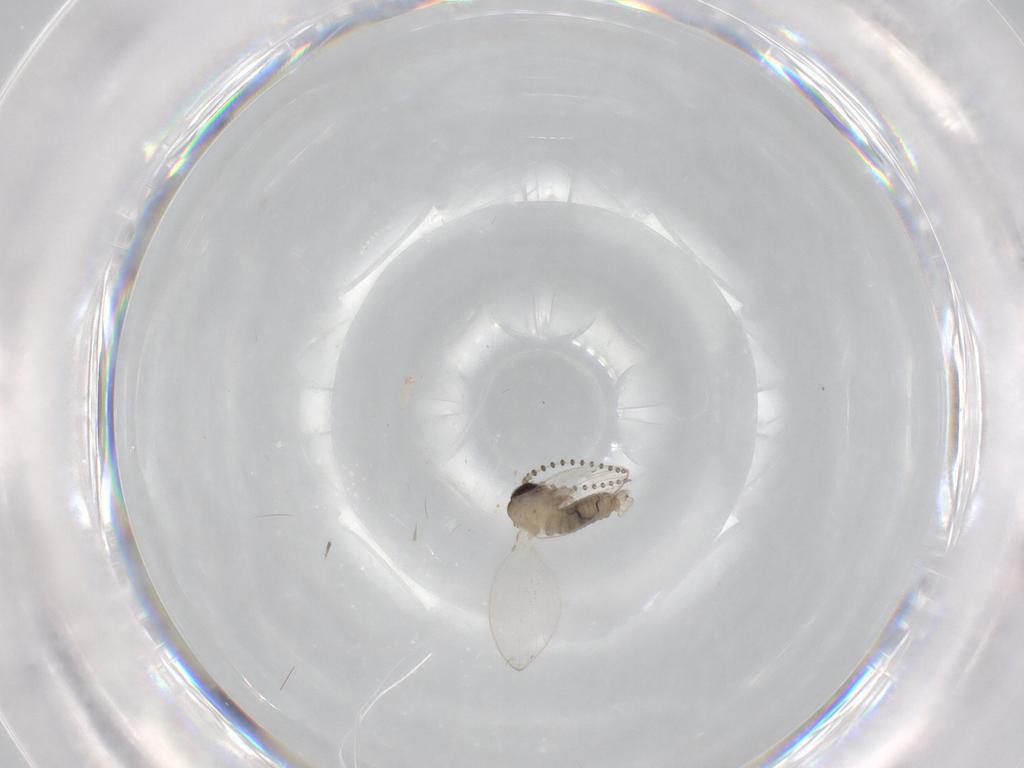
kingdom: Animalia
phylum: Arthropoda
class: Insecta
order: Diptera
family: Psychodidae
